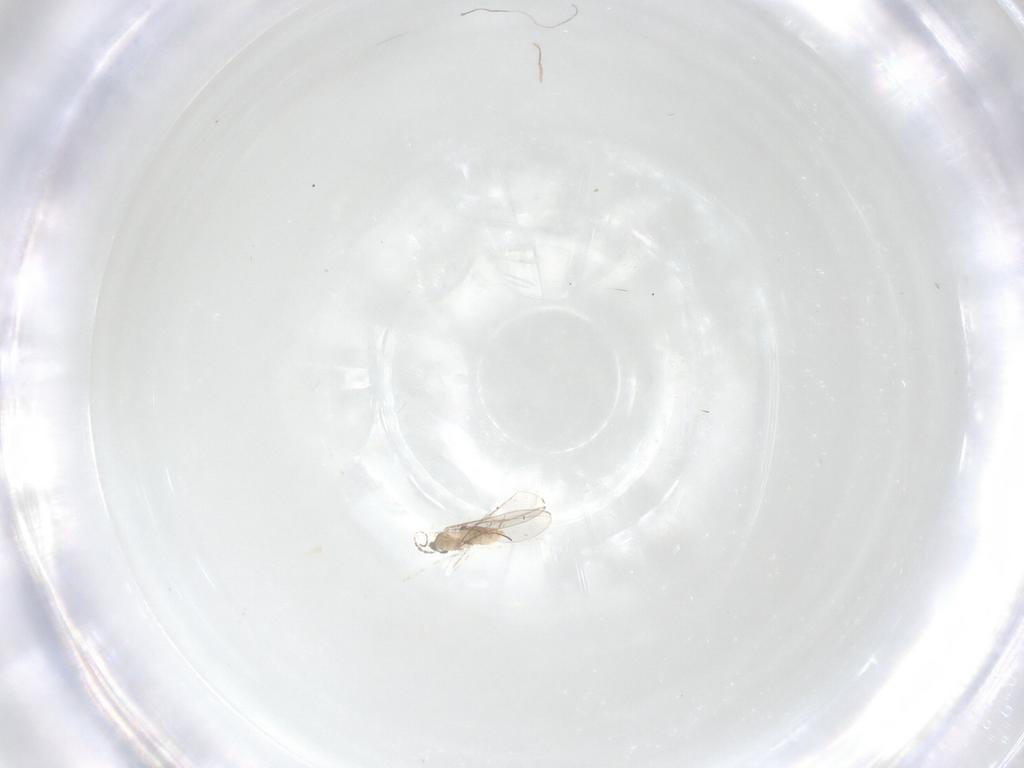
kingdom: Animalia
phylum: Arthropoda
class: Insecta
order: Diptera
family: Cecidomyiidae
